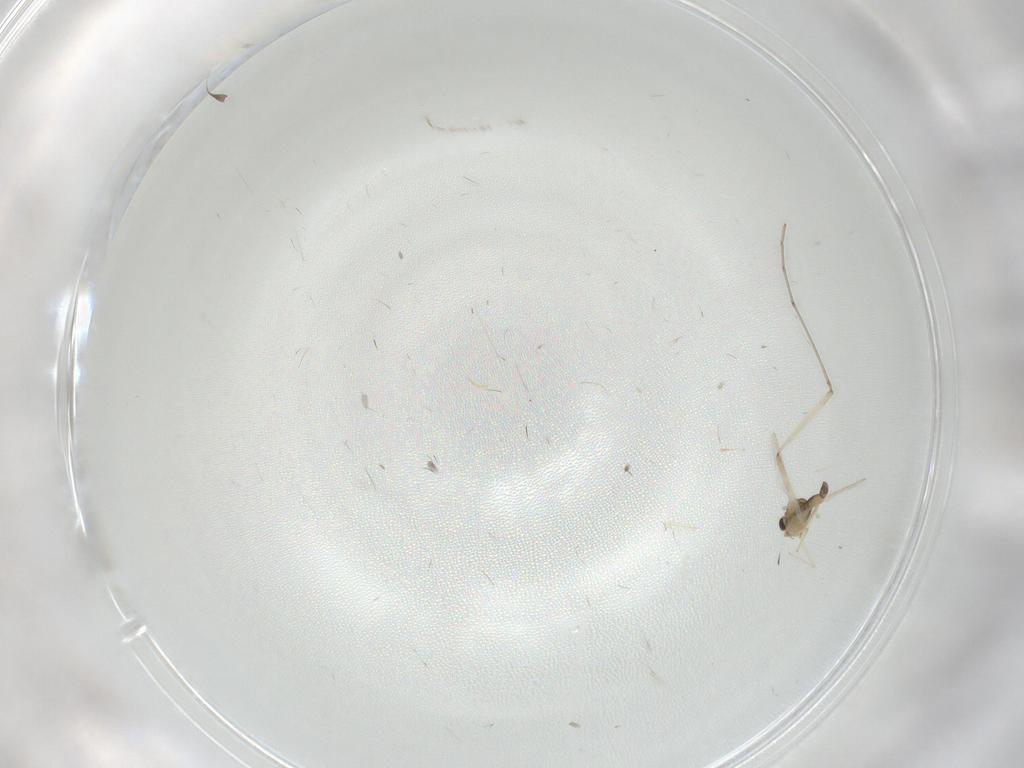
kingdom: Animalia
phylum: Arthropoda
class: Insecta
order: Diptera
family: Chironomidae
